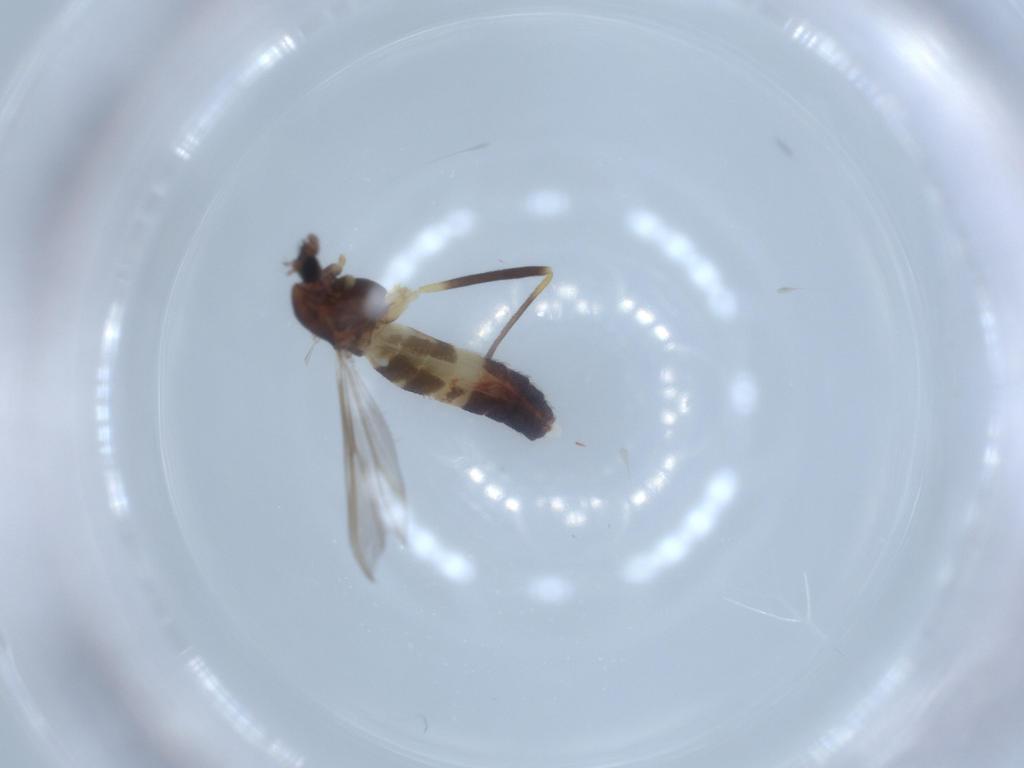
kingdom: Animalia
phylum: Arthropoda
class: Insecta
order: Diptera
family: Chironomidae
